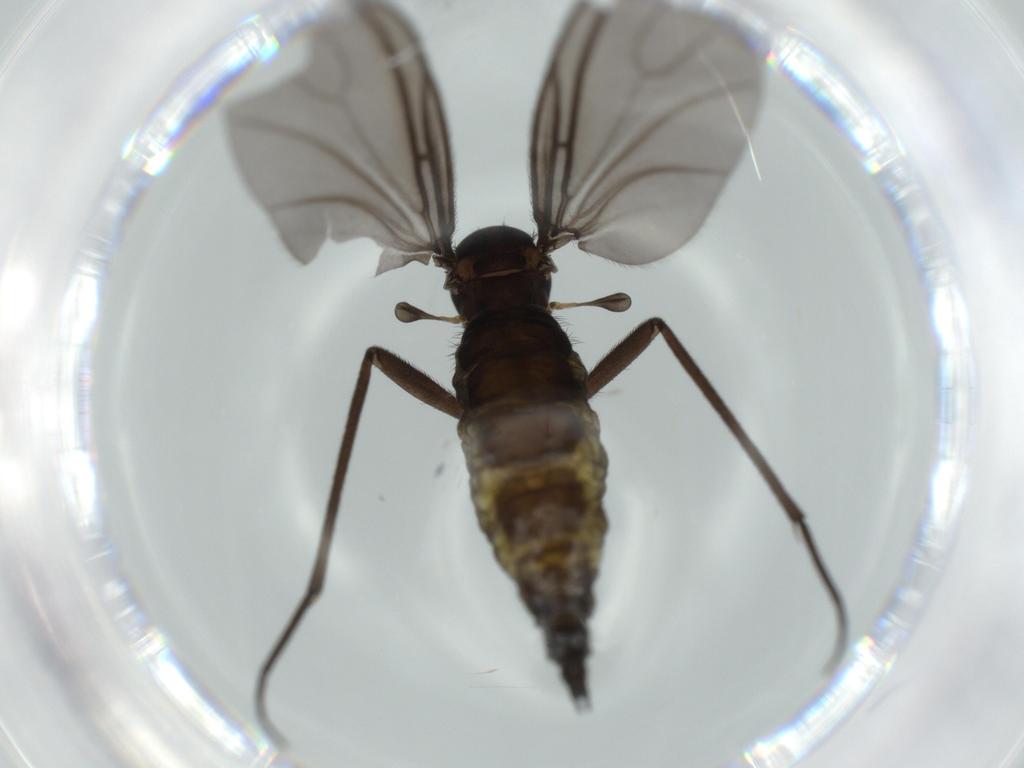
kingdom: Animalia
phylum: Arthropoda
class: Insecta
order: Diptera
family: Sciaridae
